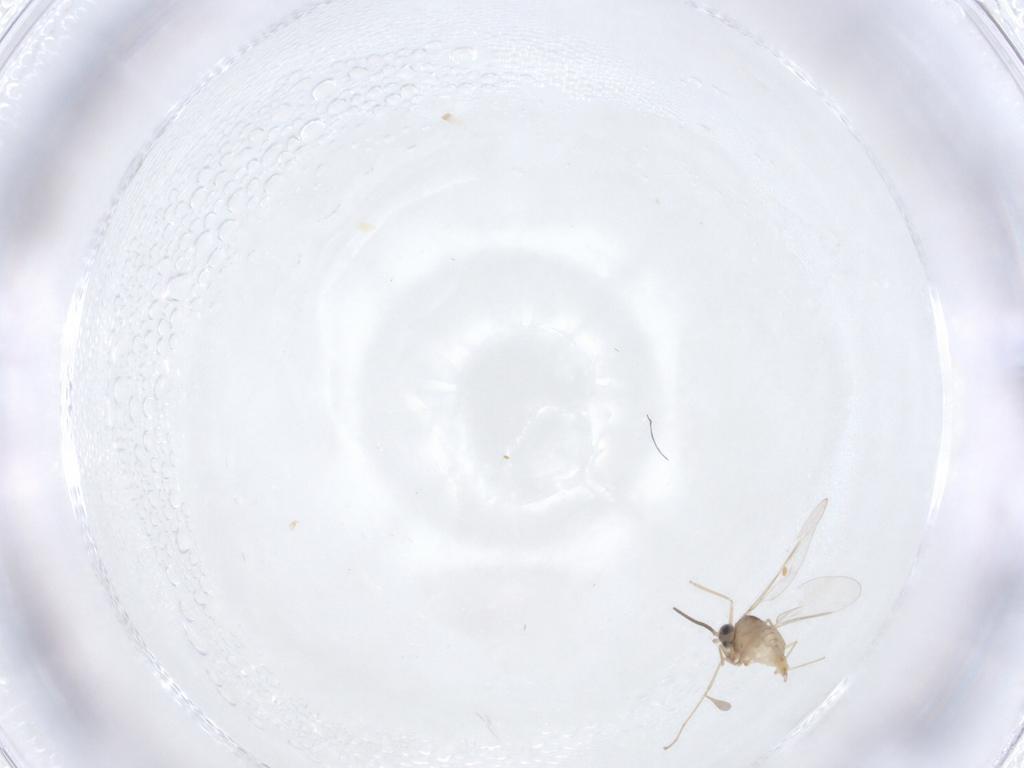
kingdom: Animalia
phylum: Arthropoda
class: Insecta
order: Diptera
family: Cecidomyiidae
